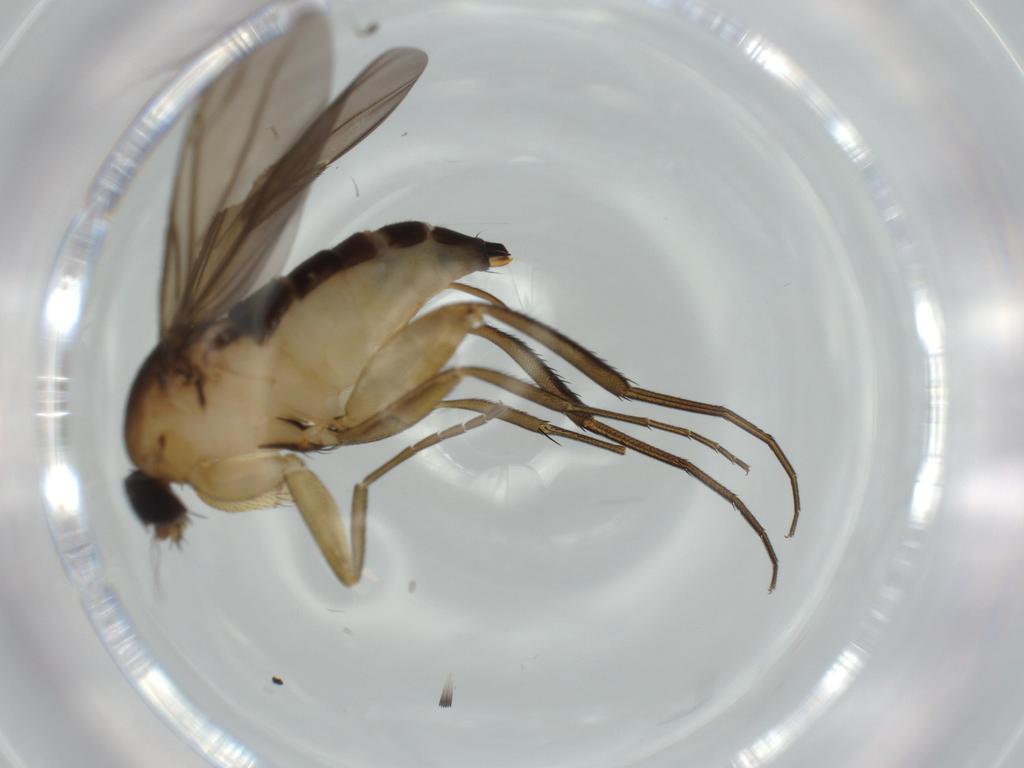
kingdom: Animalia
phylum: Arthropoda
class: Insecta
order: Diptera
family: Phoridae
